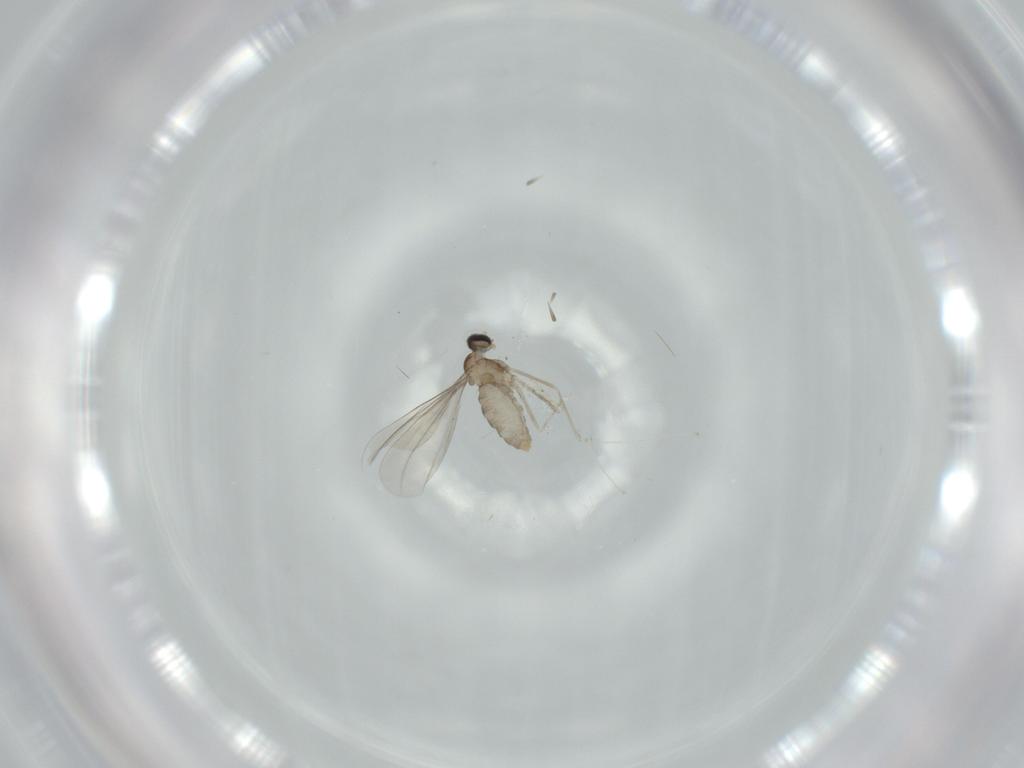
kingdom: Animalia
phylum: Arthropoda
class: Insecta
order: Diptera
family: Cecidomyiidae
